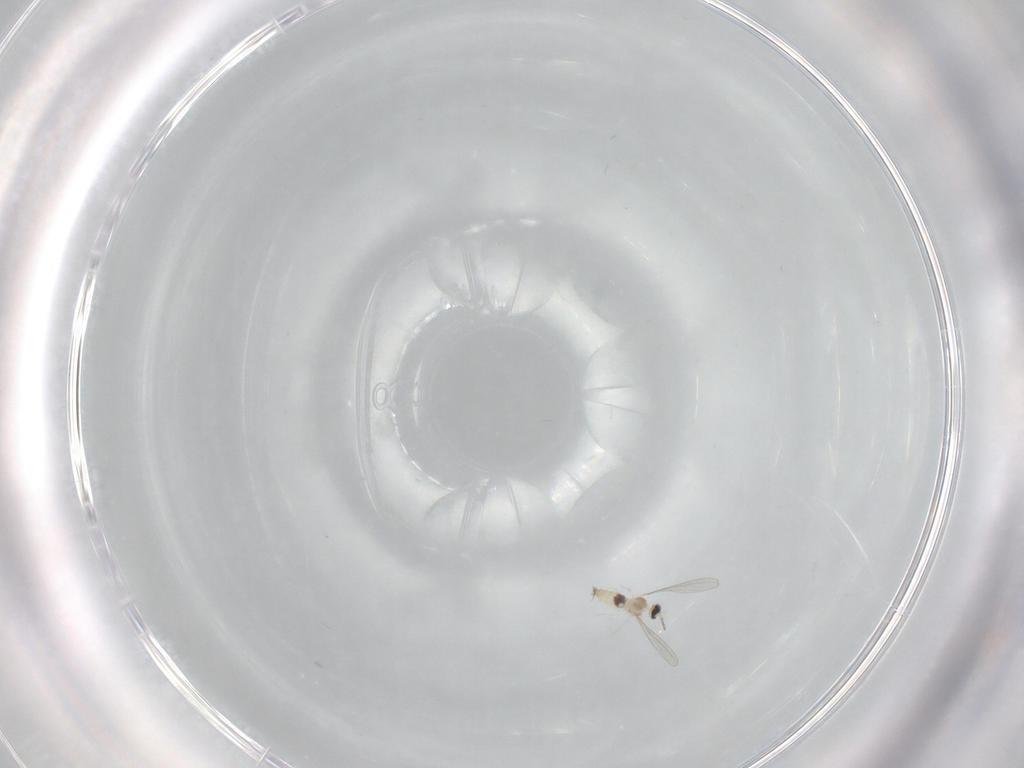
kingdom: Animalia
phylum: Arthropoda
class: Insecta
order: Diptera
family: Cecidomyiidae
